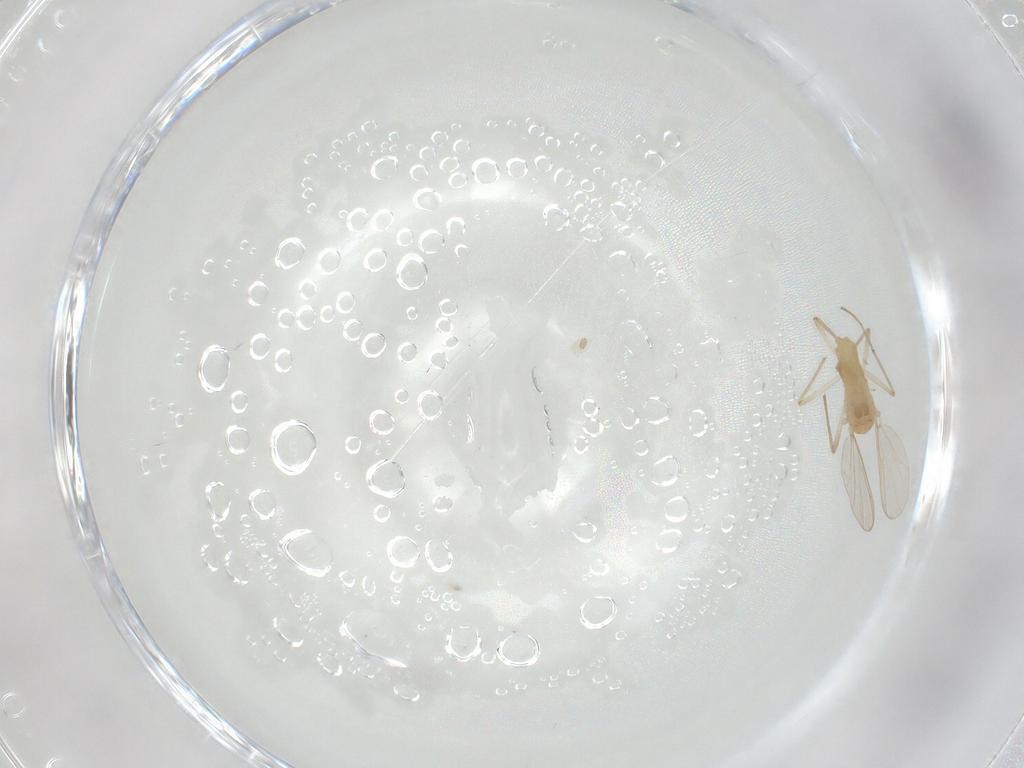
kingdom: Animalia
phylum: Arthropoda
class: Insecta
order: Diptera
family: Chironomidae
